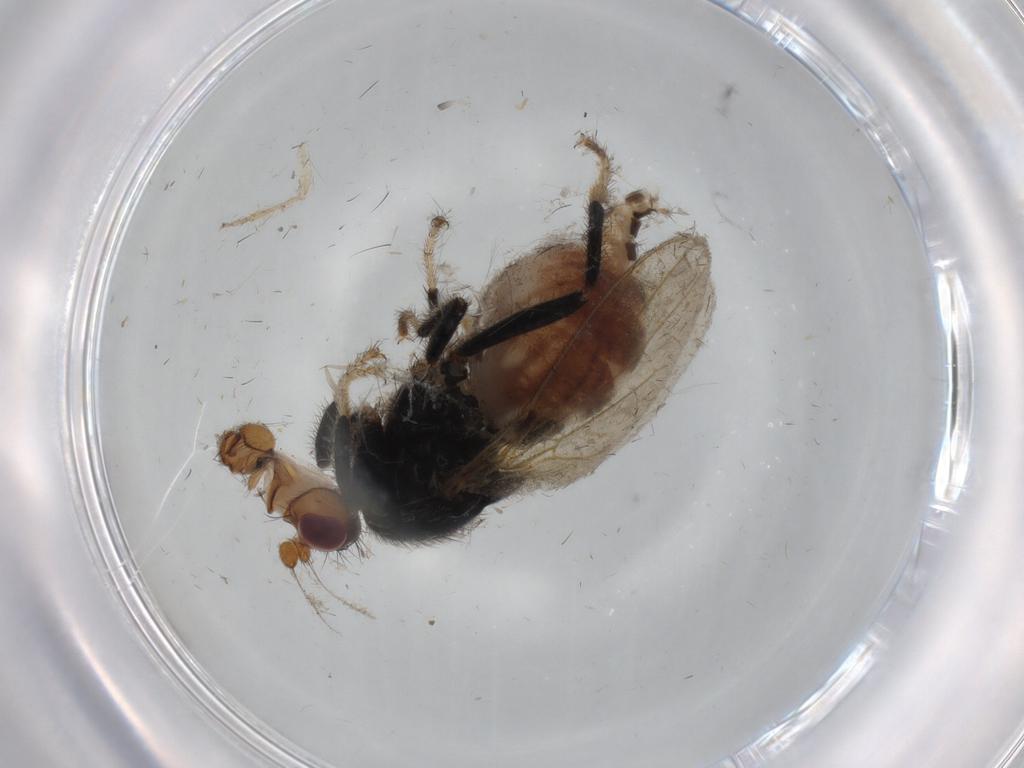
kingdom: Animalia
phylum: Arthropoda
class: Insecta
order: Diptera
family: Sphaeroceridae
